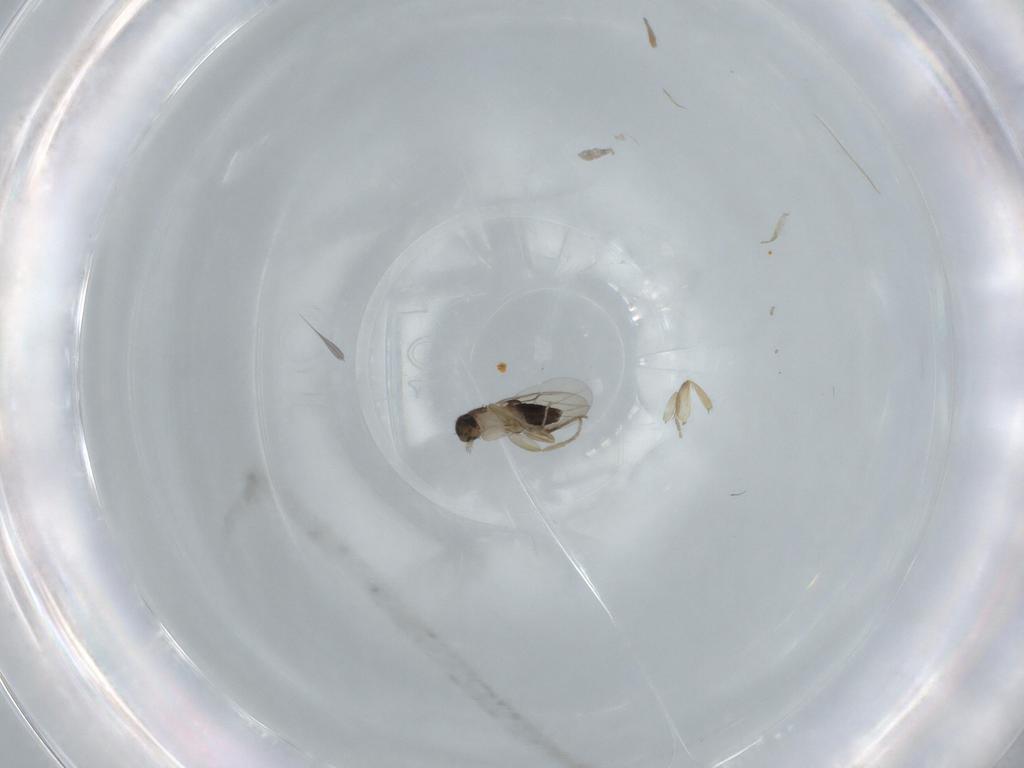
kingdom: Animalia
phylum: Arthropoda
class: Insecta
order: Diptera
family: Phoridae
